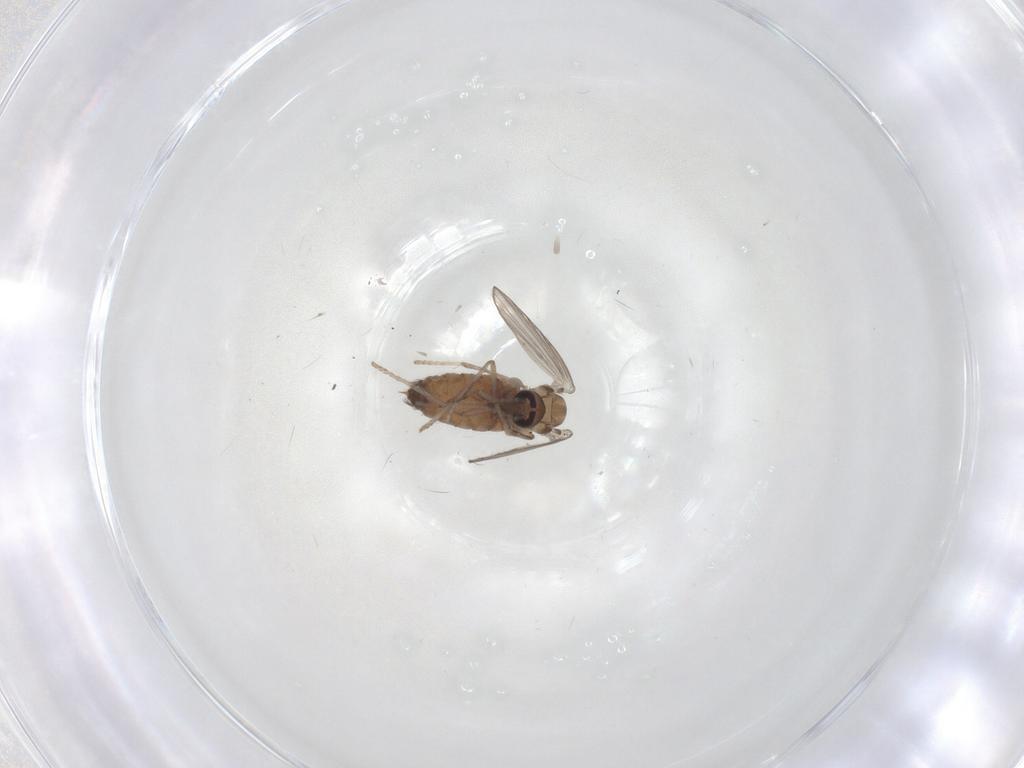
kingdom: Animalia
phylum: Arthropoda
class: Insecta
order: Diptera
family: Psychodidae
